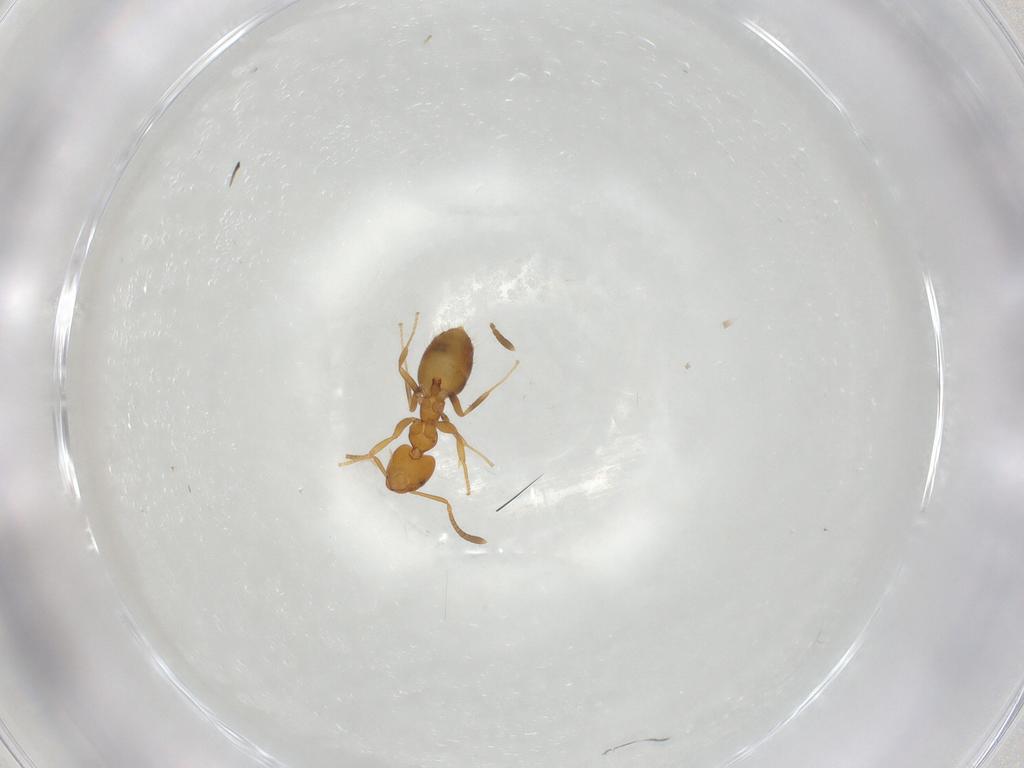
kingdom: Animalia
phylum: Arthropoda
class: Insecta
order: Hymenoptera
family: Formicidae
